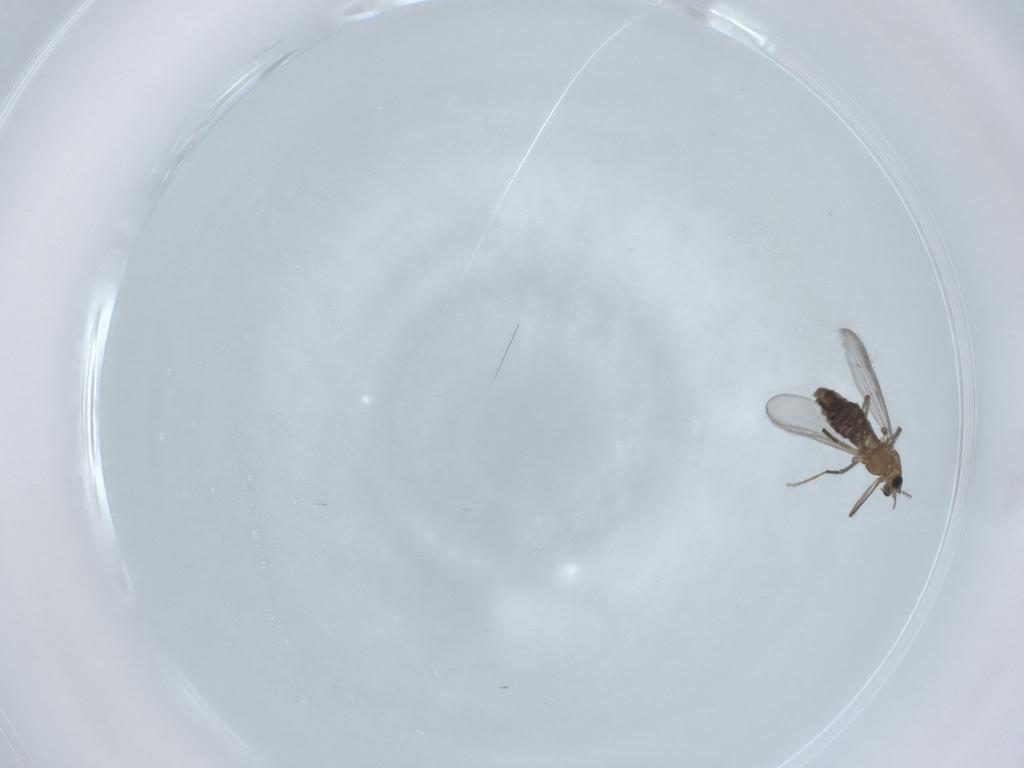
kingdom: Animalia
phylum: Arthropoda
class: Insecta
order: Diptera
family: Chironomidae
